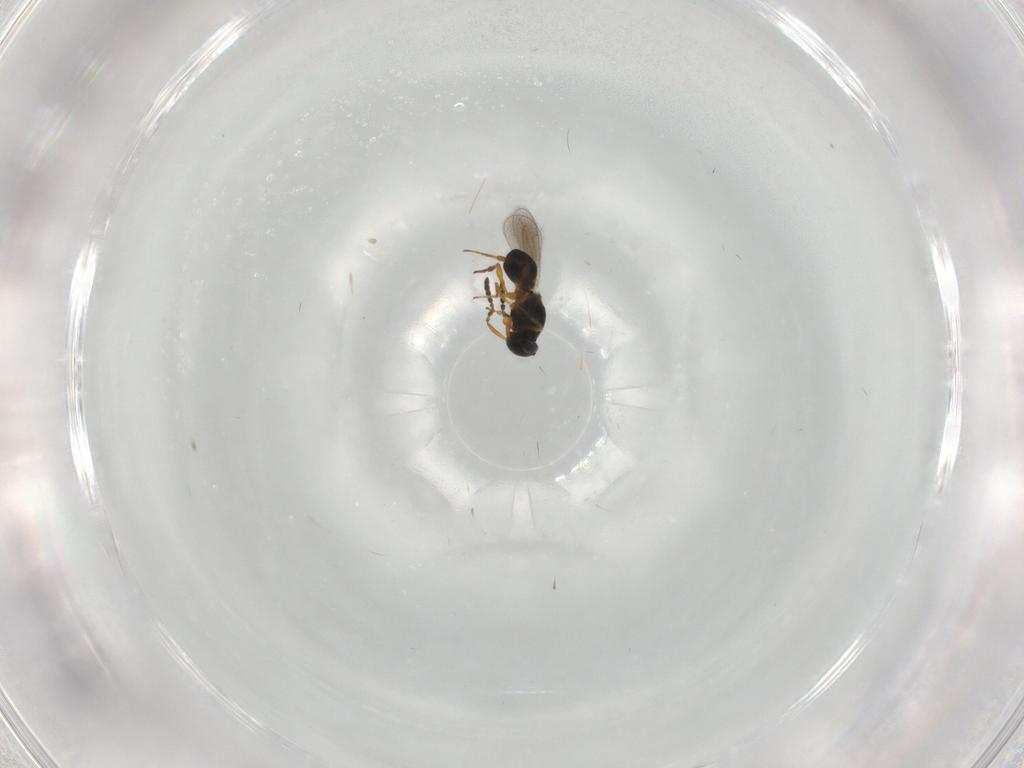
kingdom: Animalia
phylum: Arthropoda
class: Insecta
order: Hymenoptera
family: Platygastridae
